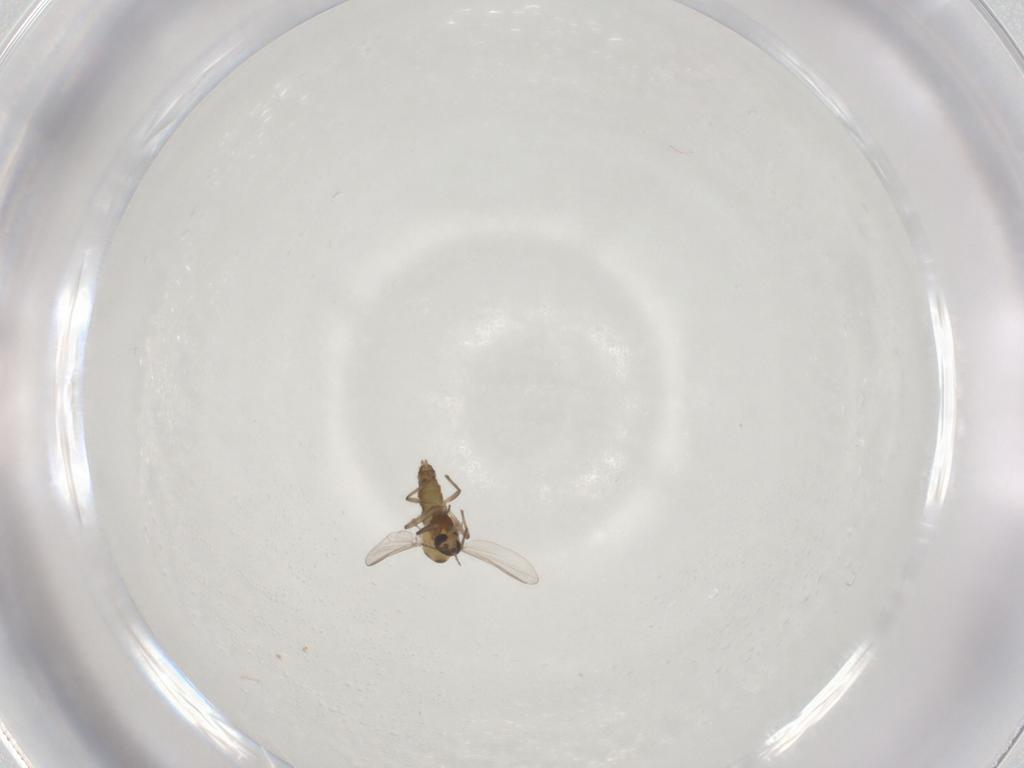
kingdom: Animalia
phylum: Arthropoda
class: Insecta
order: Diptera
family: Chironomidae
